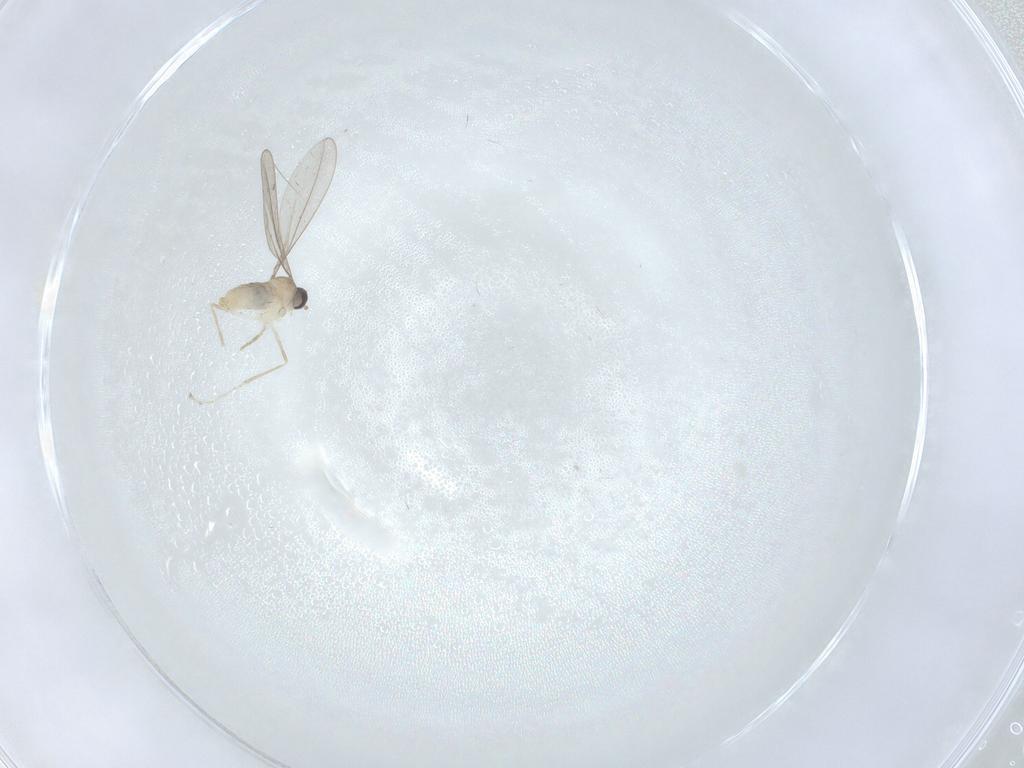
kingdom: Animalia
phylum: Arthropoda
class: Insecta
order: Diptera
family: Cecidomyiidae
